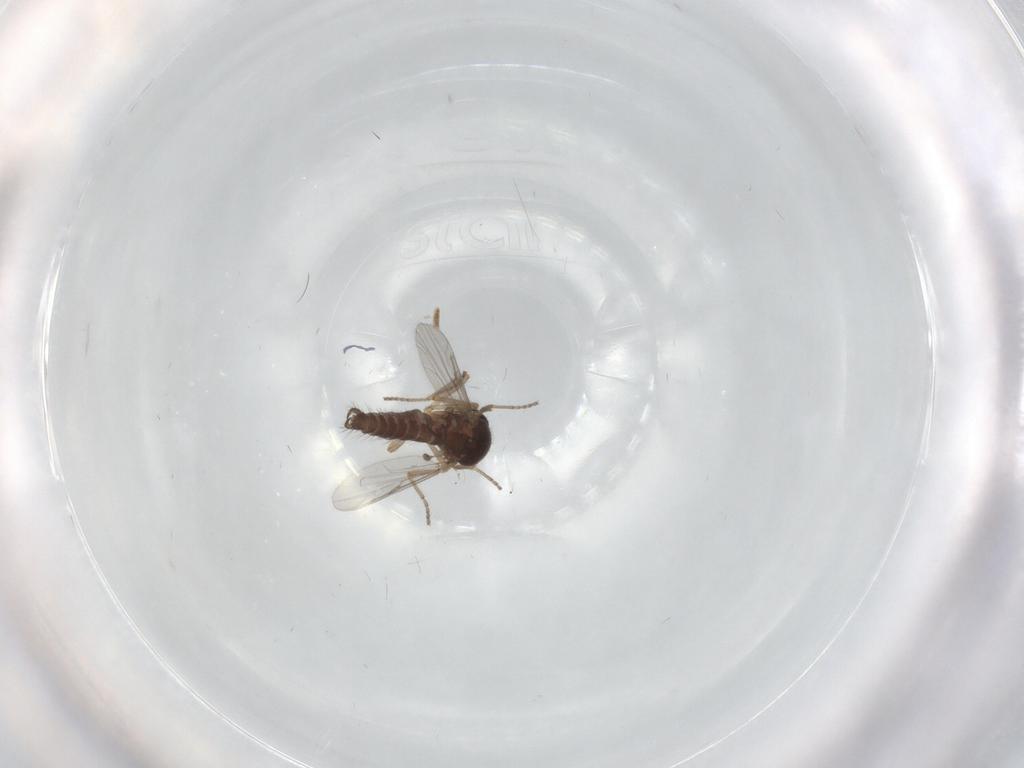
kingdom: Animalia
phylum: Arthropoda
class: Insecta
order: Diptera
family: Ceratopogonidae
